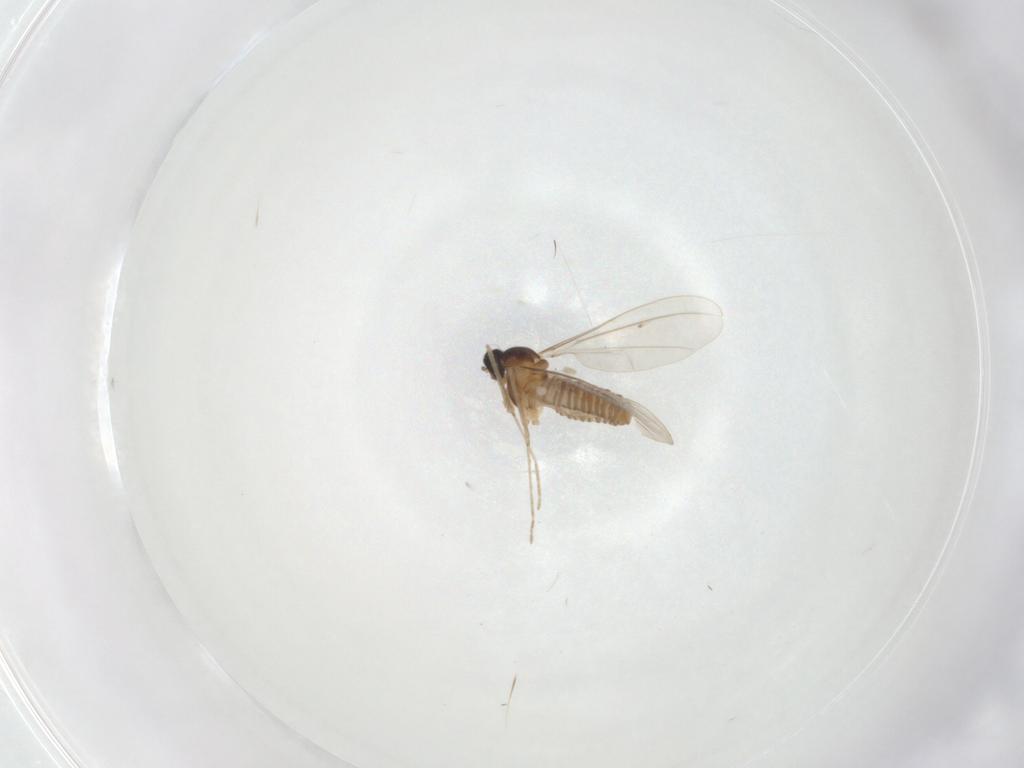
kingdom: Animalia
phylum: Arthropoda
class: Insecta
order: Diptera
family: Cecidomyiidae
